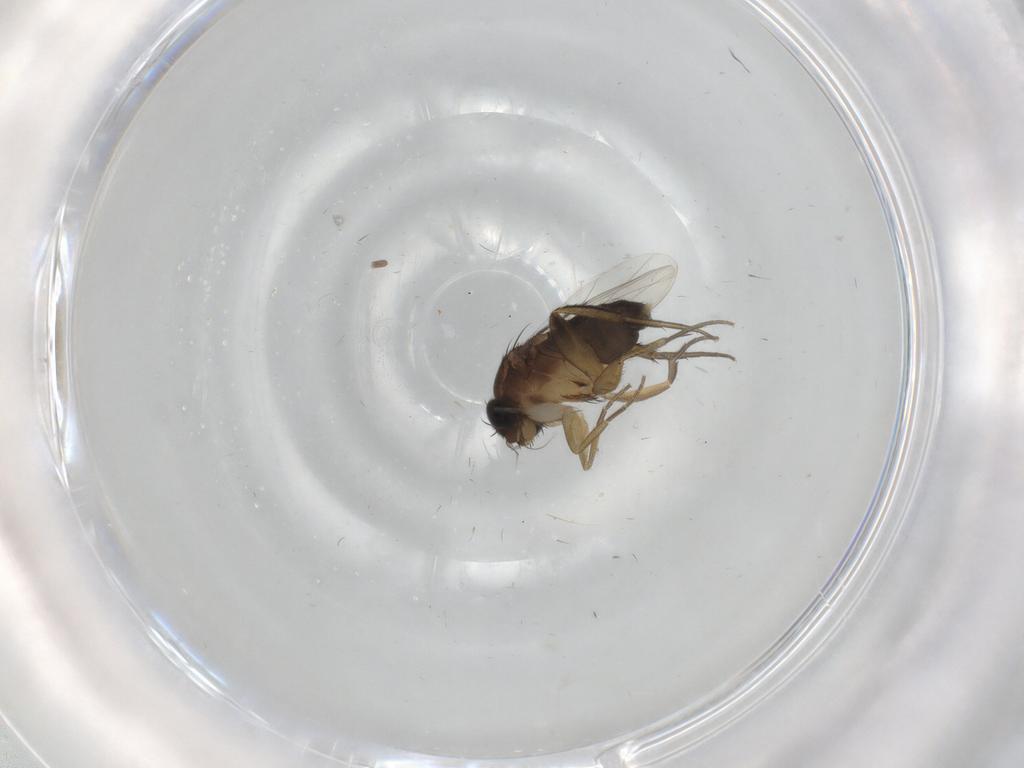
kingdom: Animalia
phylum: Arthropoda
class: Insecta
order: Diptera
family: Phoridae
